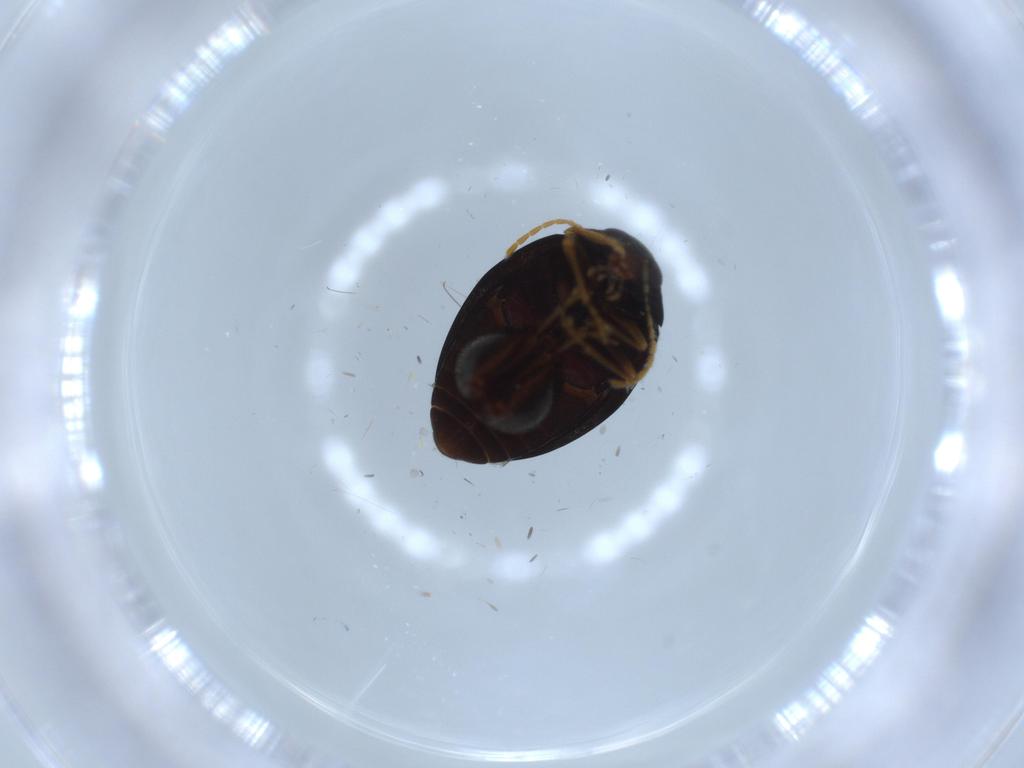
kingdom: Animalia
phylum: Arthropoda
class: Insecta
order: Coleoptera
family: Chrysomelidae
